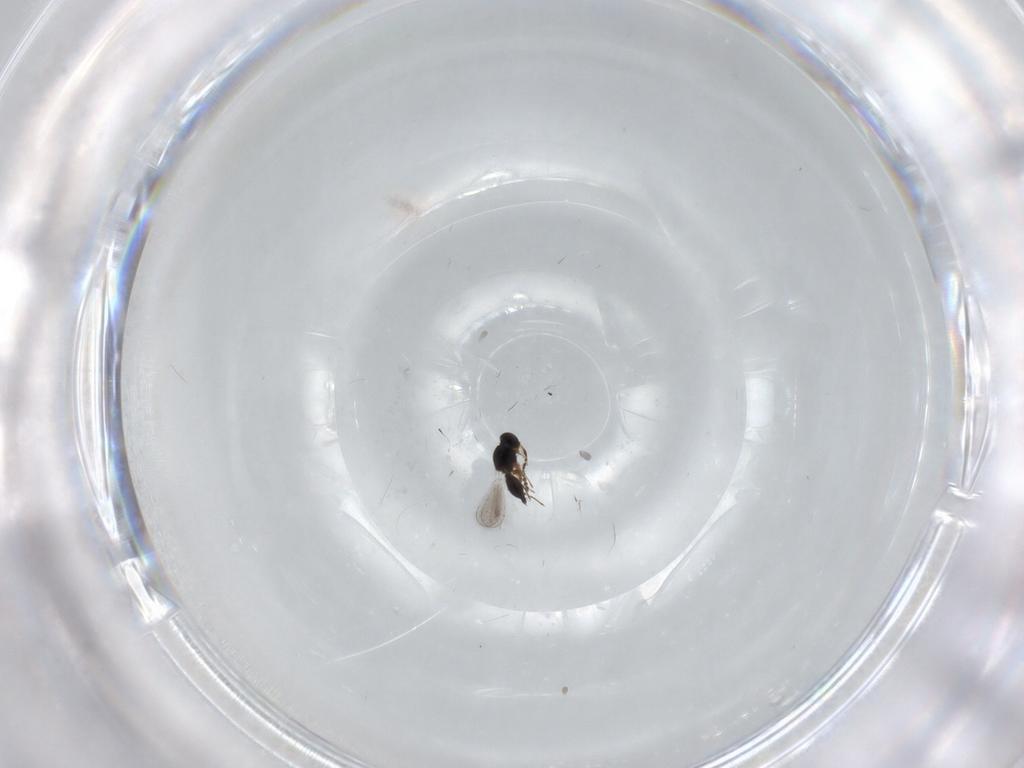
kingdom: Animalia
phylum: Arthropoda
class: Insecta
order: Hymenoptera
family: Platygastridae
